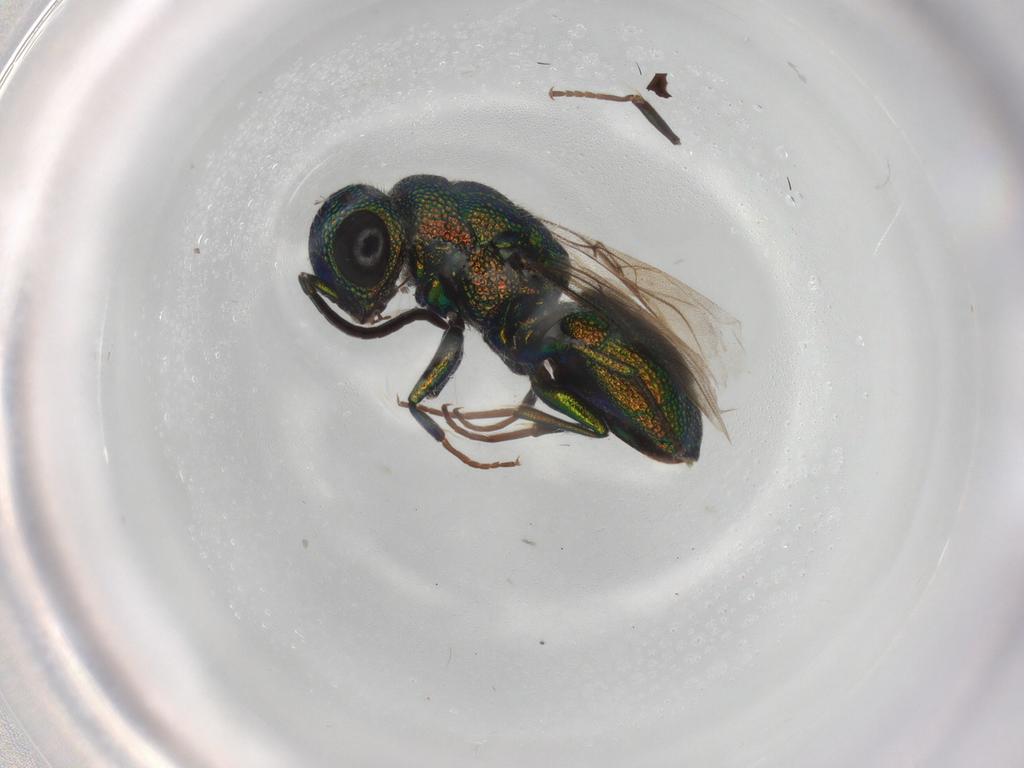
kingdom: Animalia
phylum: Arthropoda
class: Insecta
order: Hymenoptera
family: Chrysididae
